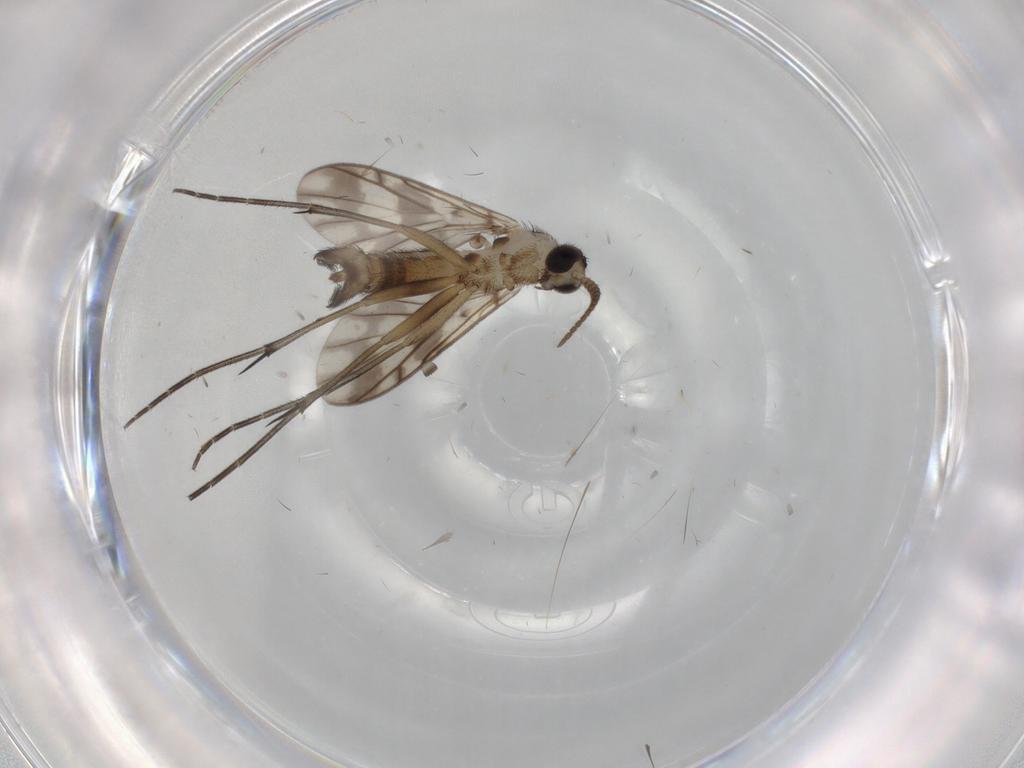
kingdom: Animalia
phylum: Arthropoda
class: Insecta
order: Diptera
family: Cecidomyiidae
